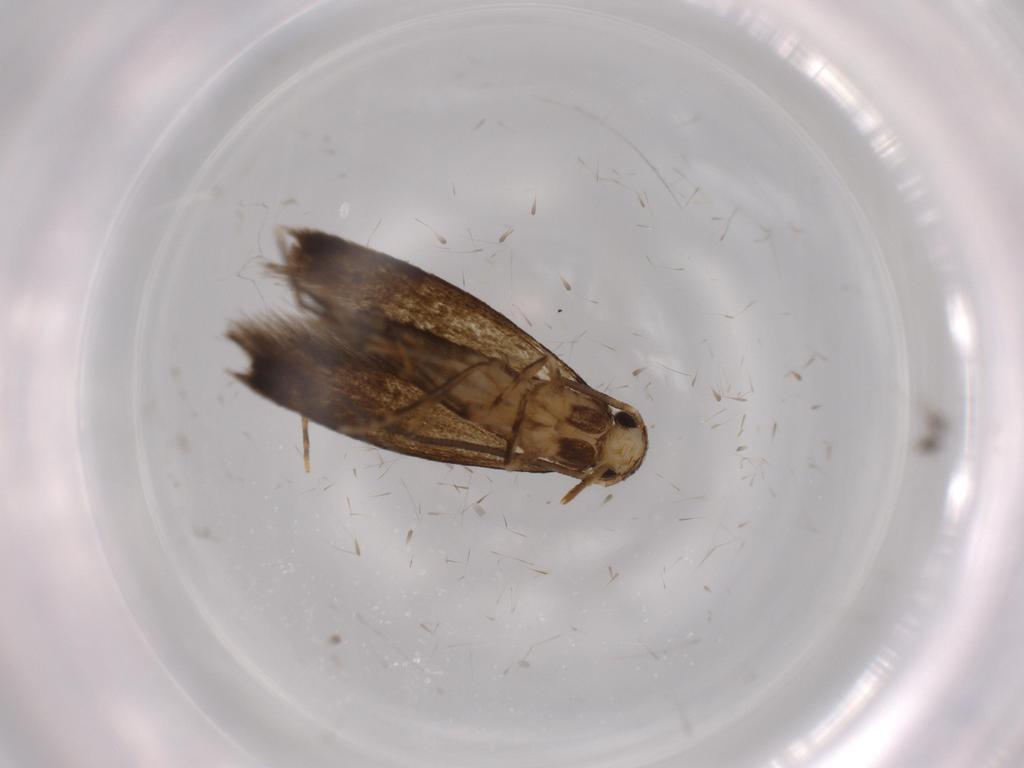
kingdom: Animalia
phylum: Arthropoda
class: Insecta
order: Lepidoptera
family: Tineidae
